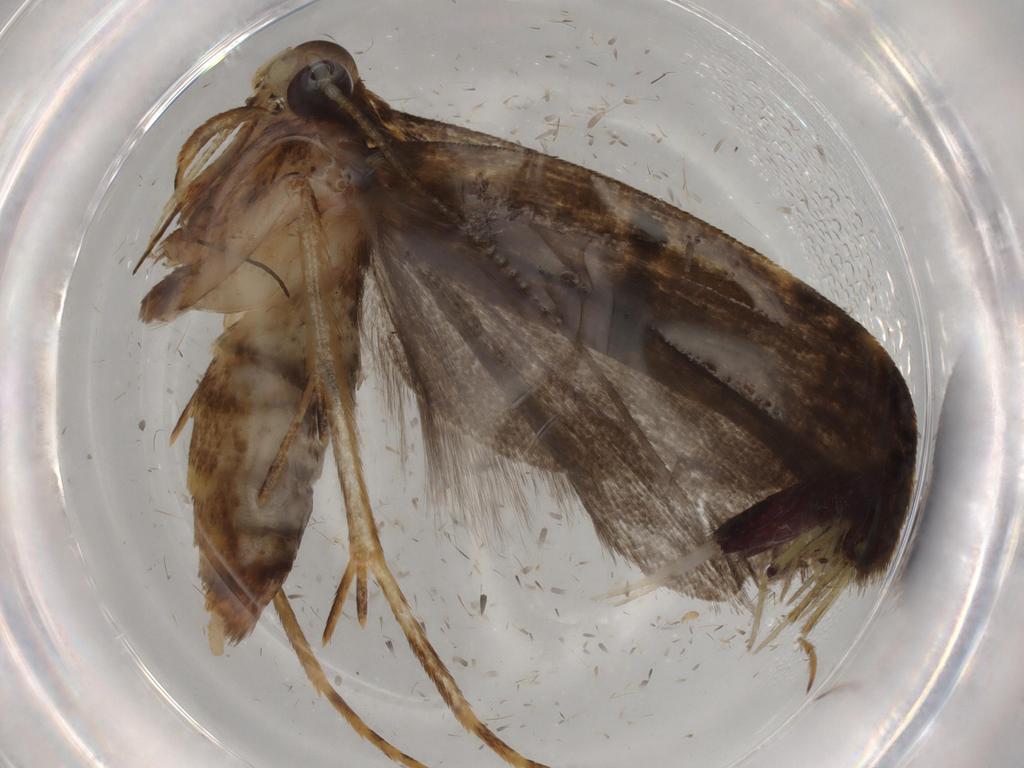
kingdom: Animalia
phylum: Arthropoda
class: Insecta
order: Lepidoptera
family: Autostichidae
